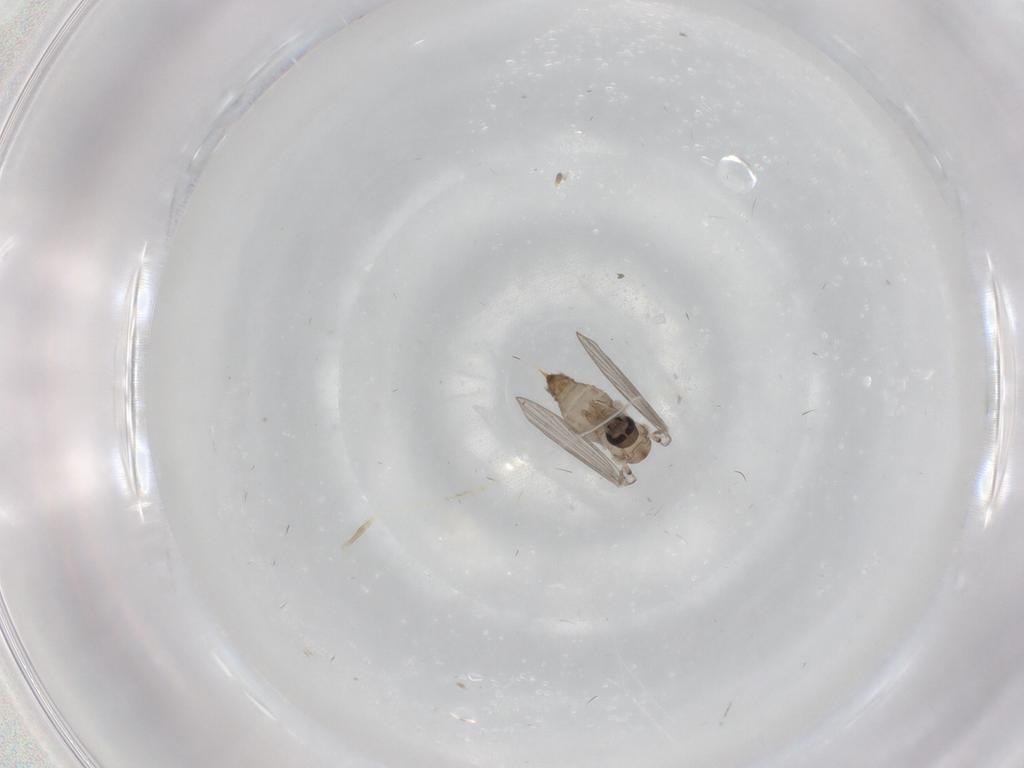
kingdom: Animalia
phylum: Arthropoda
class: Insecta
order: Diptera
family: Psychodidae
